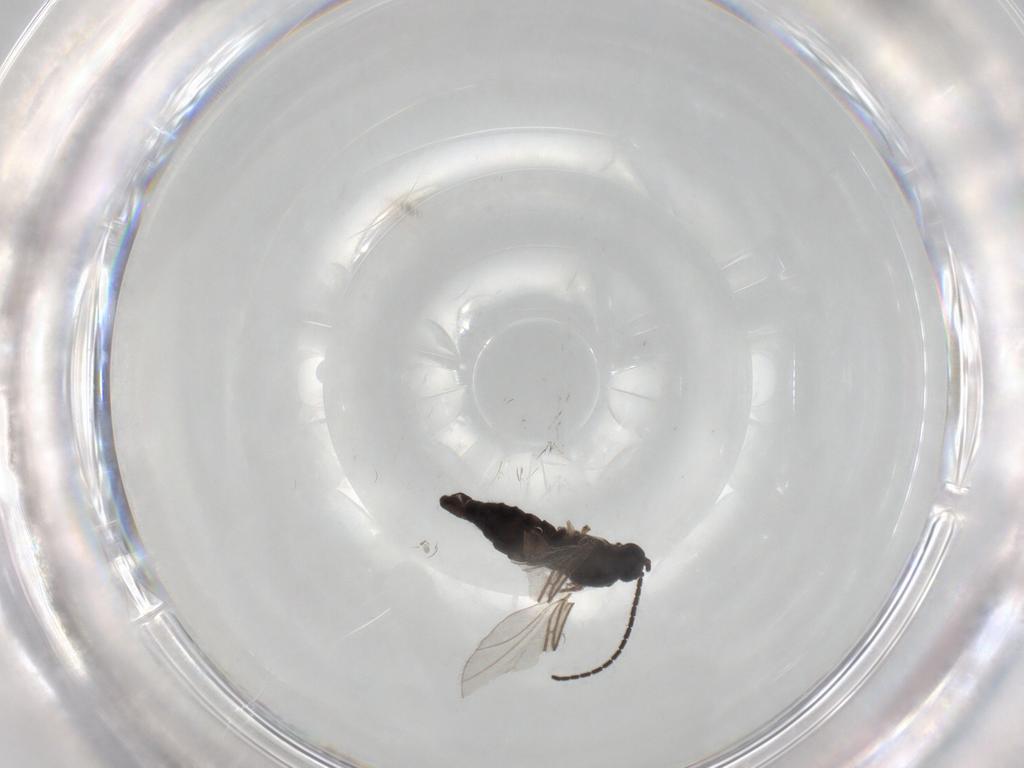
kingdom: Animalia
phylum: Arthropoda
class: Insecta
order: Diptera
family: Sciaridae
